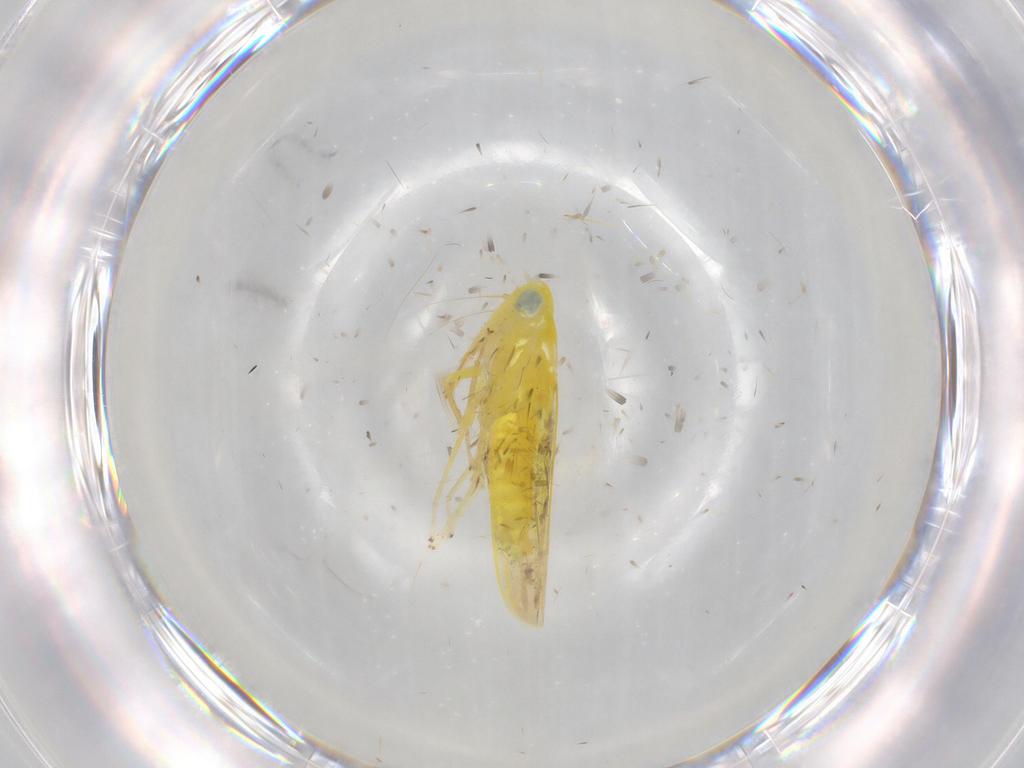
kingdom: Animalia
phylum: Arthropoda
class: Insecta
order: Hemiptera
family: Cicadellidae
